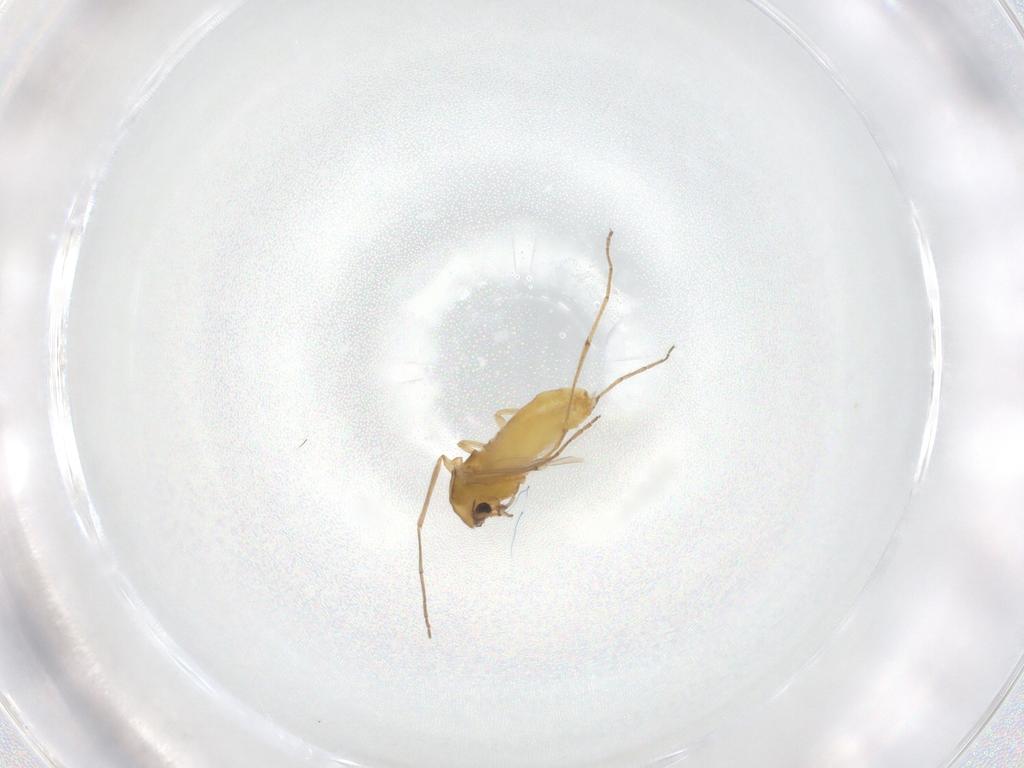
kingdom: Animalia
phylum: Arthropoda
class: Insecta
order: Diptera
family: Chironomidae
